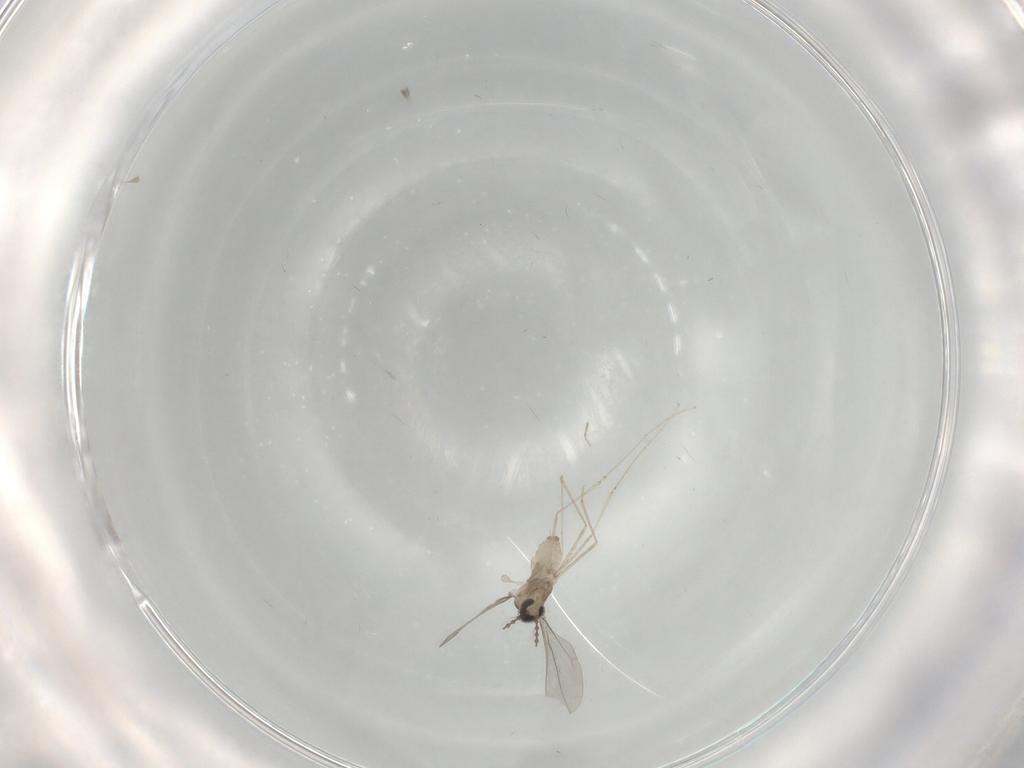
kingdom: Animalia
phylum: Arthropoda
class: Insecta
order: Diptera
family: Cecidomyiidae
